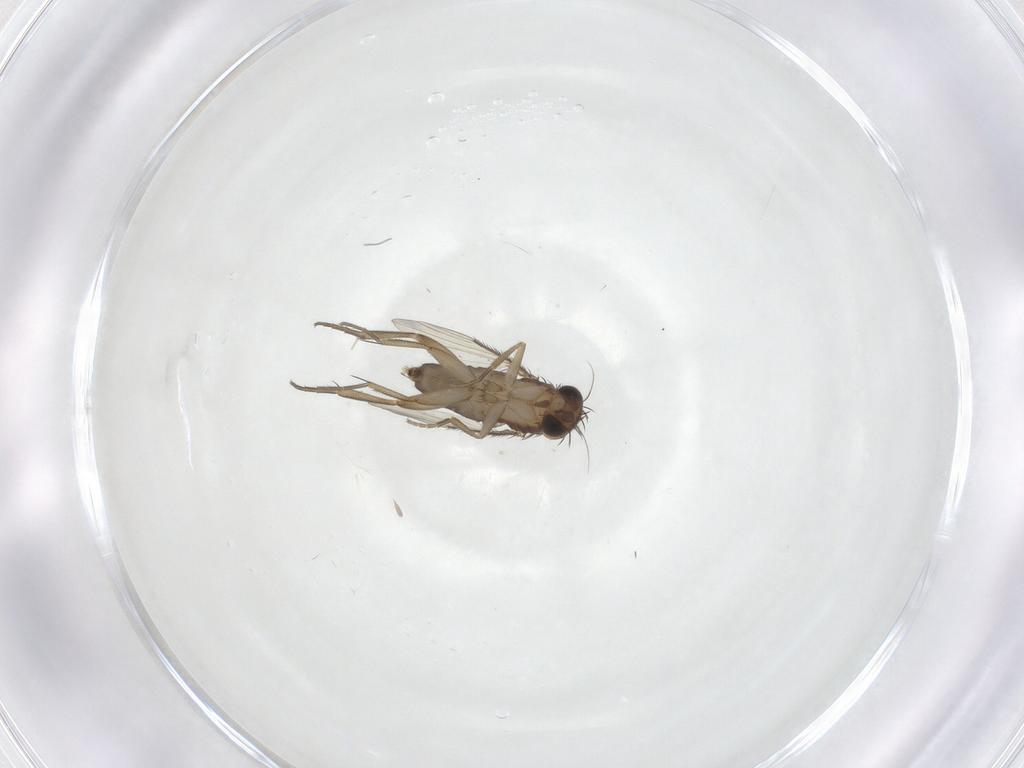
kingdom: Animalia
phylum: Arthropoda
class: Insecta
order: Diptera
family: Phoridae
